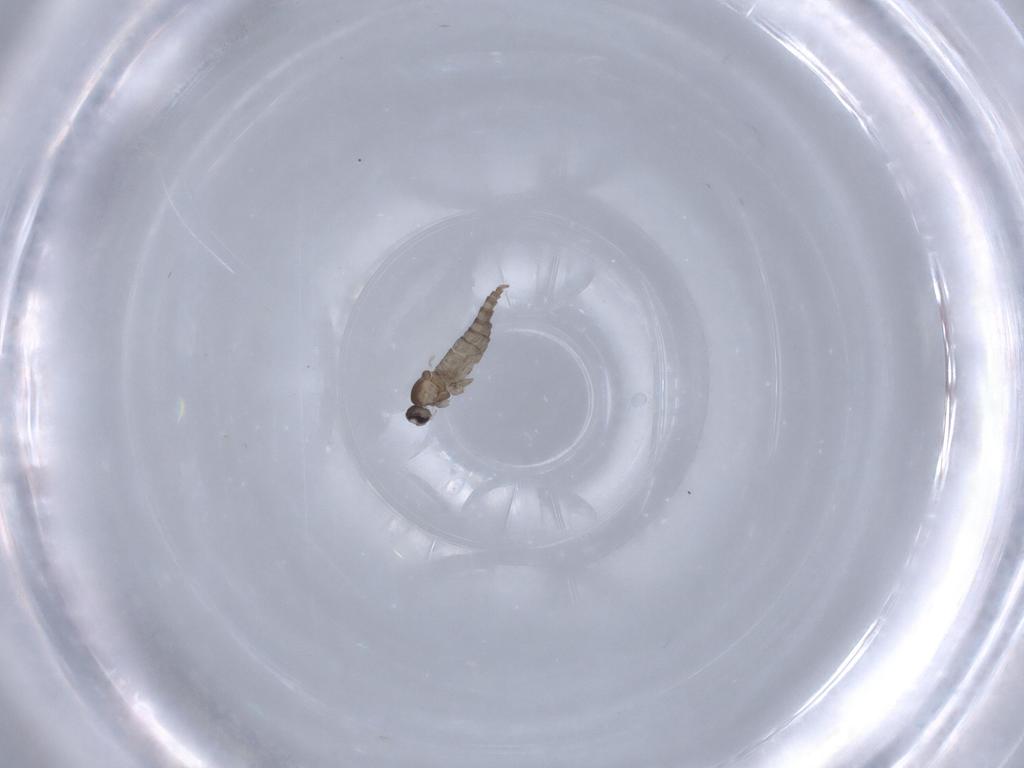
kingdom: Animalia
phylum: Arthropoda
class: Insecta
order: Diptera
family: Cecidomyiidae
